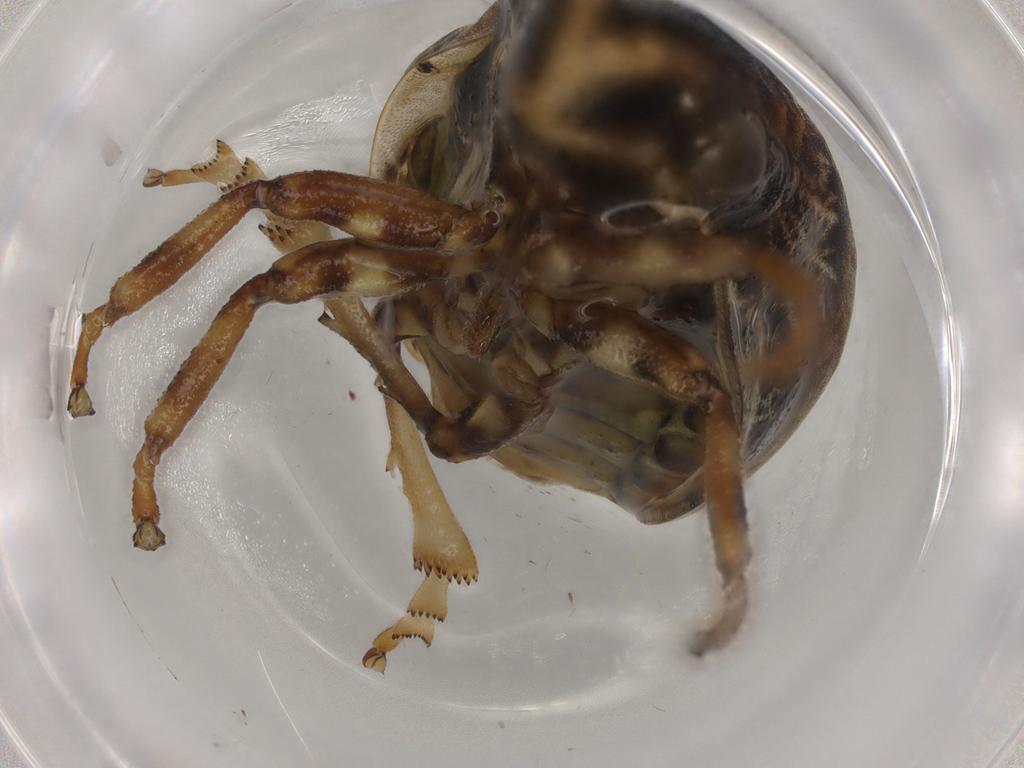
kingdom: Animalia
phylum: Arthropoda
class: Insecta
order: Hemiptera
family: Aphrophoridae
